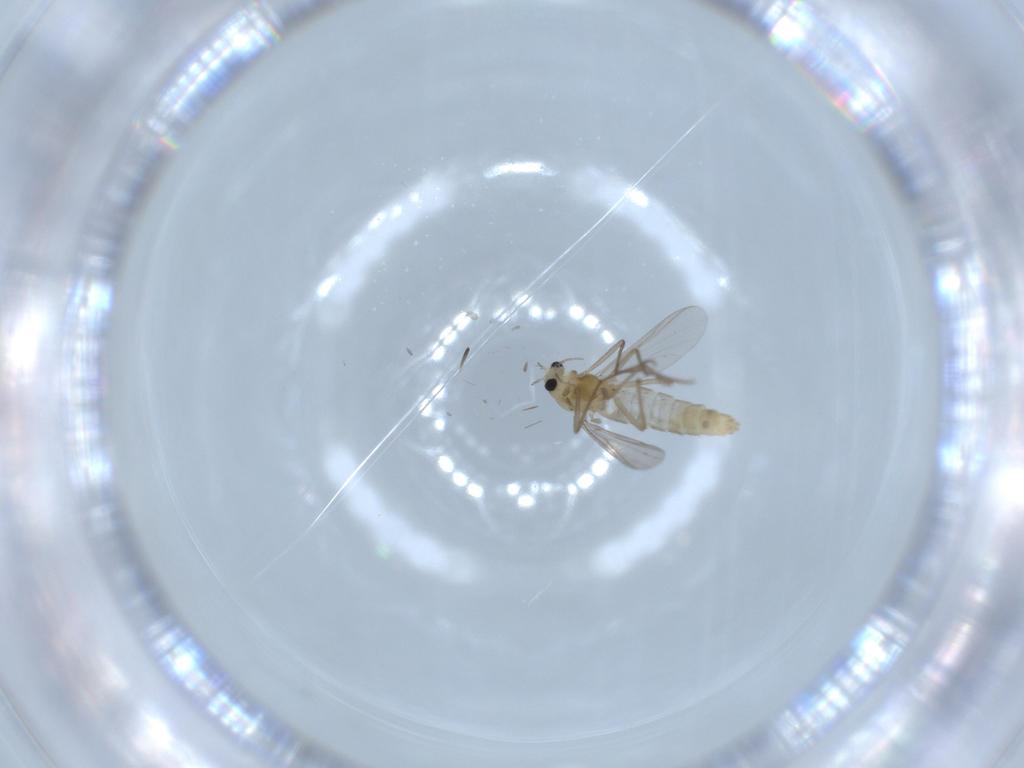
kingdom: Animalia
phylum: Arthropoda
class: Insecta
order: Diptera
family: Chironomidae
